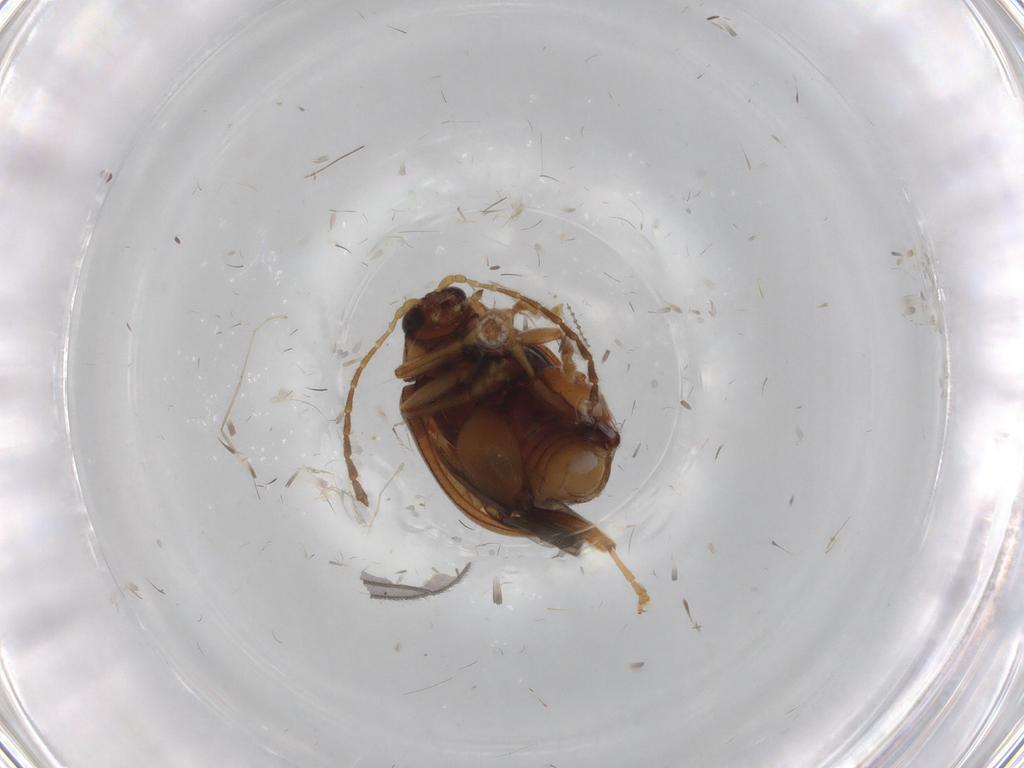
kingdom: Animalia
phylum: Arthropoda
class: Insecta
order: Coleoptera
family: Chrysomelidae
